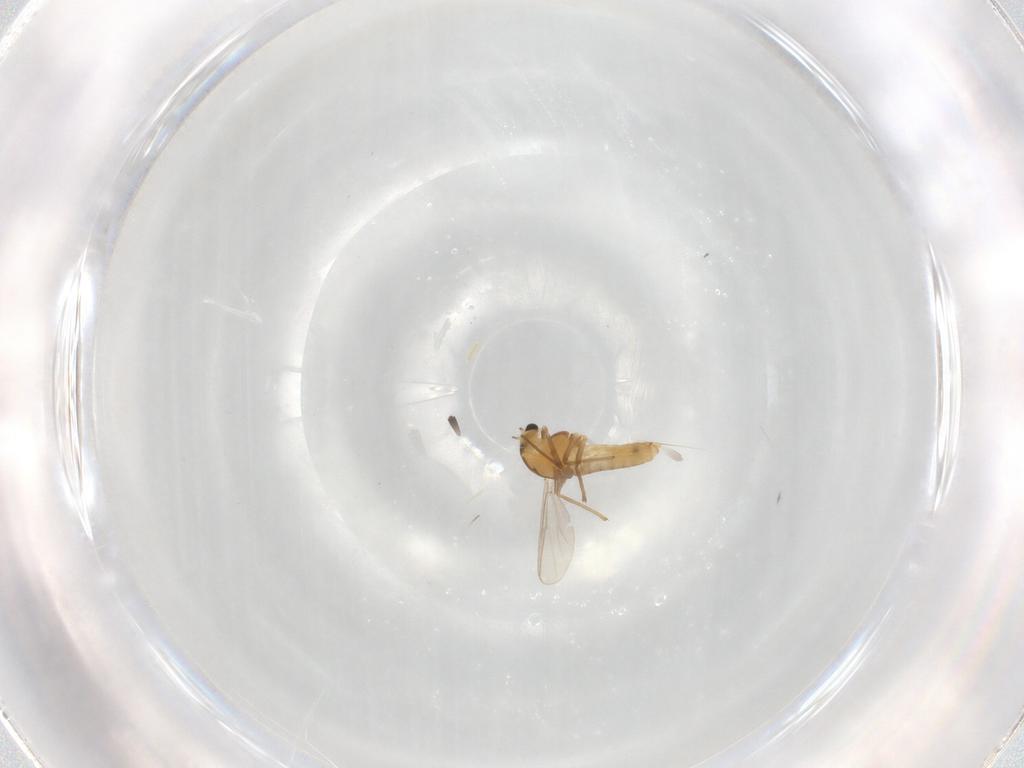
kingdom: Animalia
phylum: Arthropoda
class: Insecta
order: Diptera
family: Chironomidae
